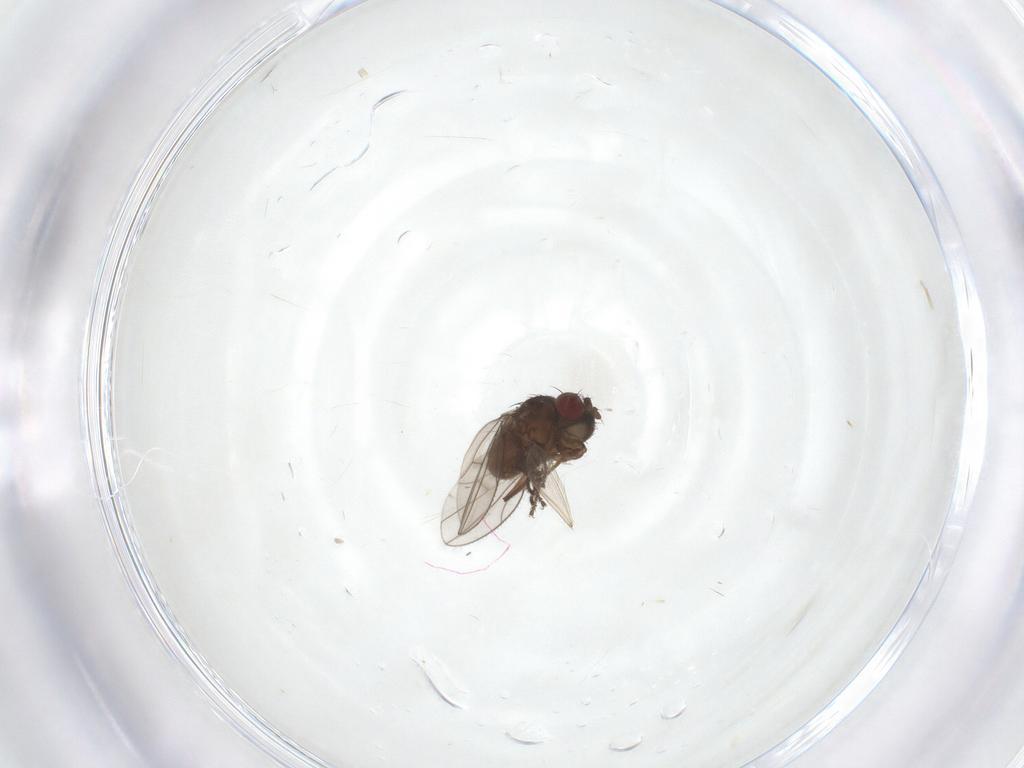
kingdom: Animalia
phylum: Arthropoda
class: Insecta
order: Diptera
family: Ephydridae
